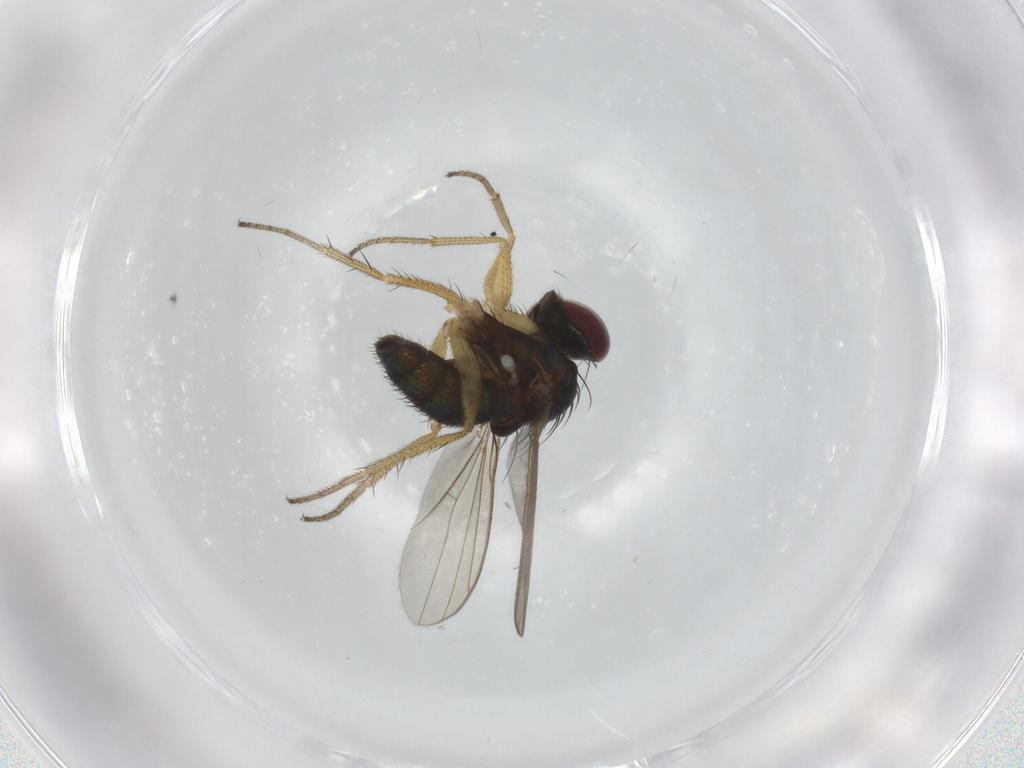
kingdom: Animalia
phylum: Arthropoda
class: Insecta
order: Diptera
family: Dolichopodidae
